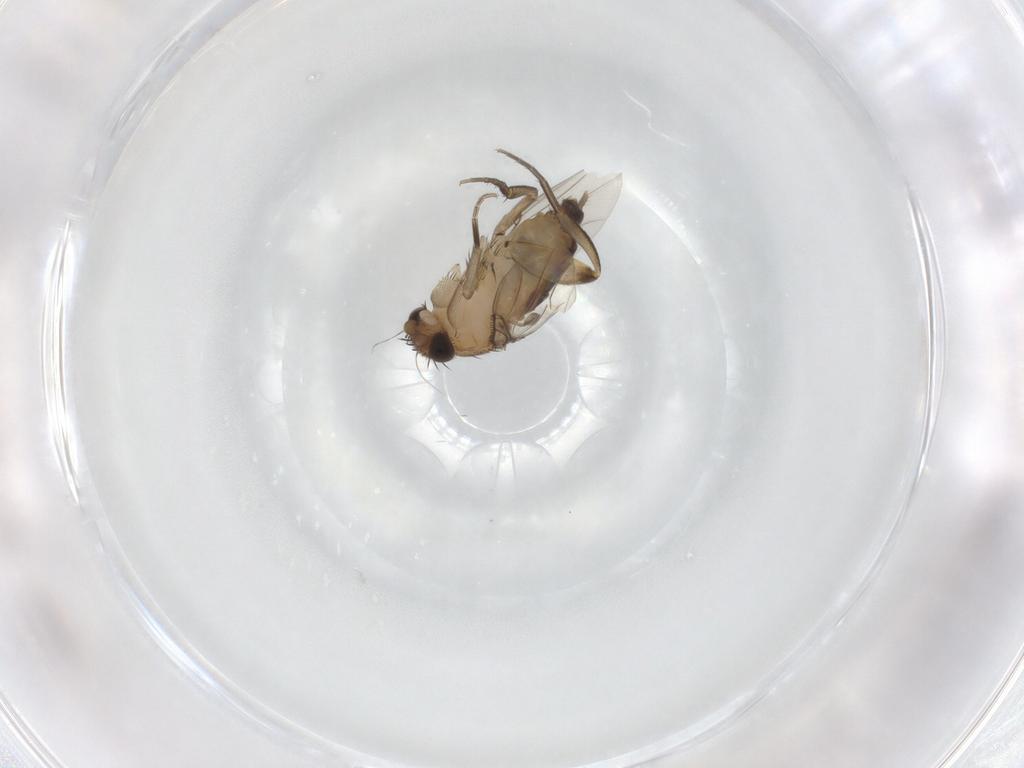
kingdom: Animalia
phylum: Arthropoda
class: Insecta
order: Diptera
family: Phoridae
